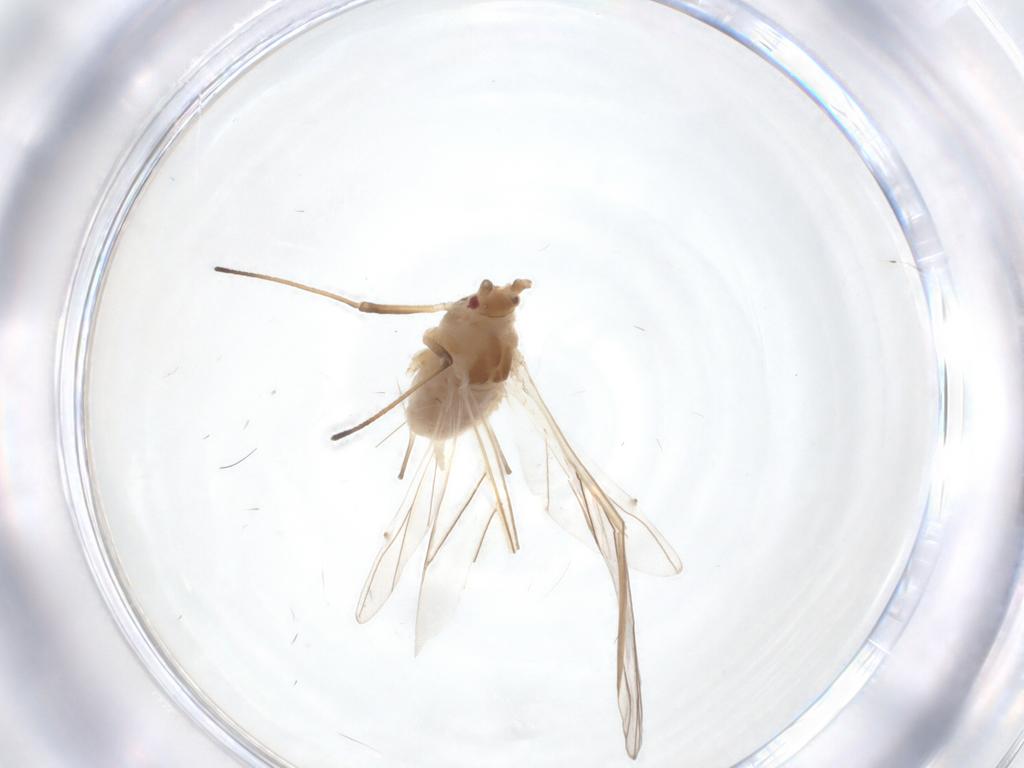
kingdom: Animalia
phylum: Arthropoda
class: Insecta
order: Hemiptera
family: Aphididae
